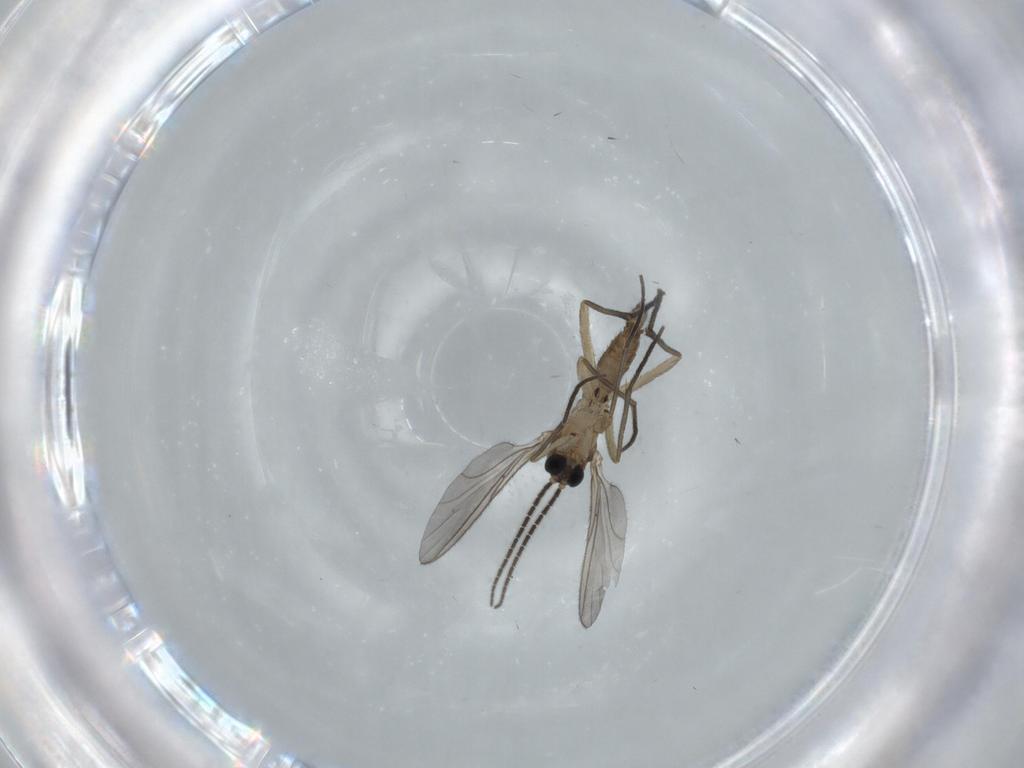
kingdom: Animalia
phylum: Arthropoda
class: Insecta
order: Diptera
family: Sciaridae
